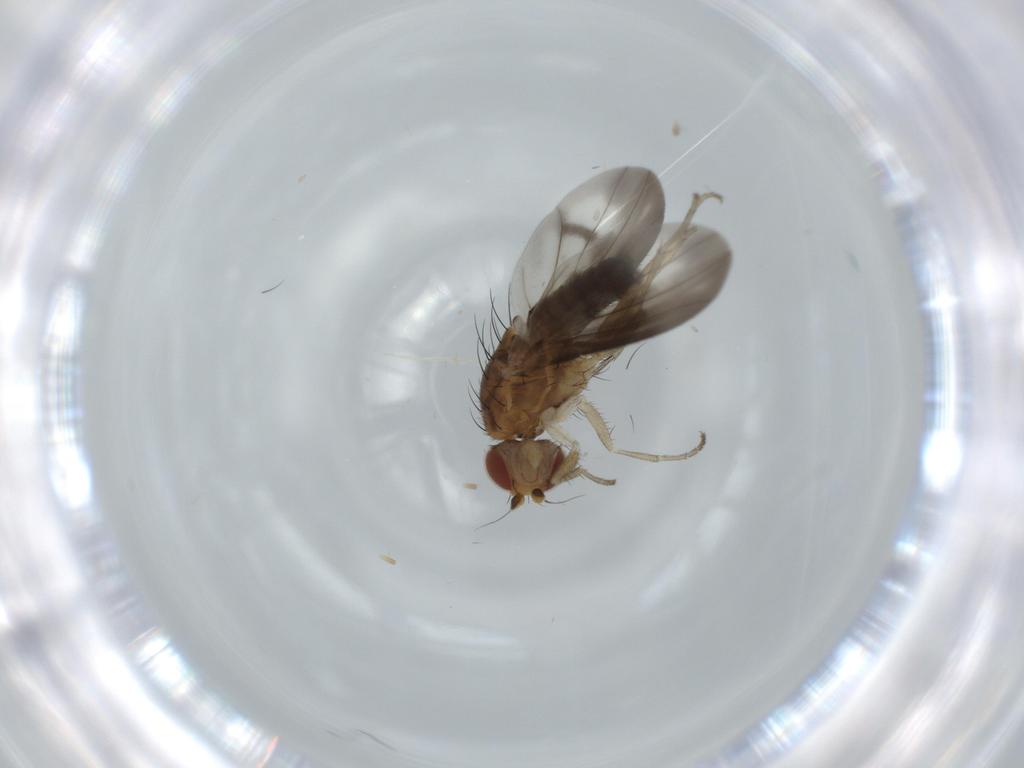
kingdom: Animalia
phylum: Arthropoda
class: Insecta
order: Diptera
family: Heleomyzidae
